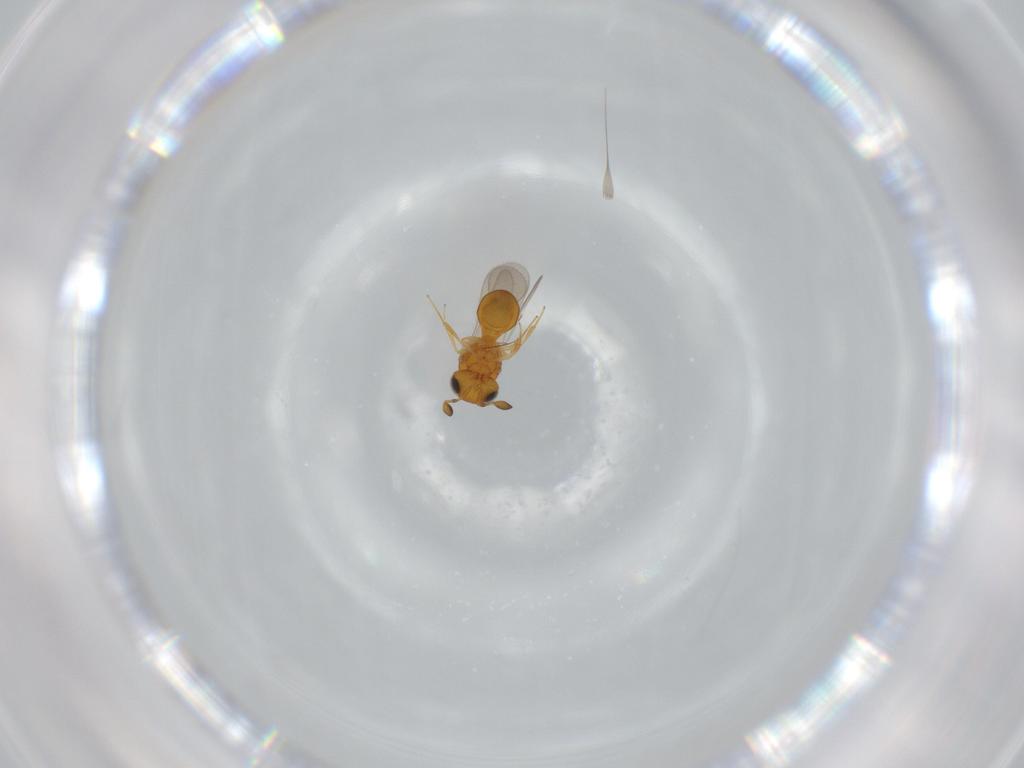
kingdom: Animalia
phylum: Arthropoda
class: Insecta
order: Hymenoptera
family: Scelionidae
